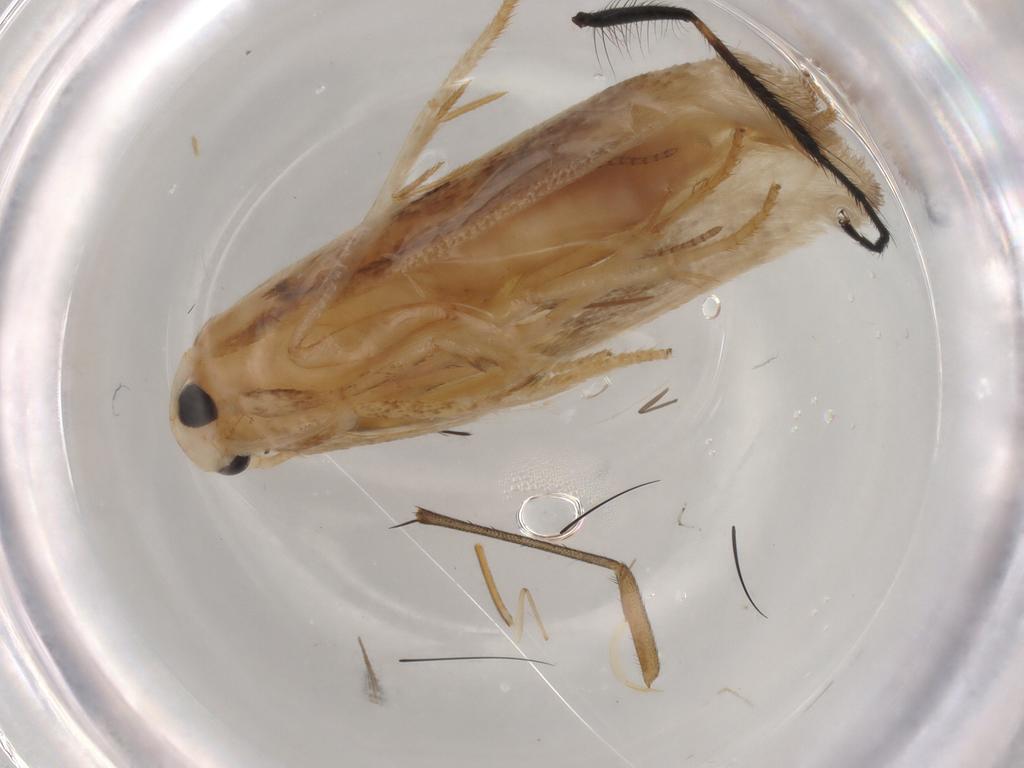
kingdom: Animalia
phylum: Arthropoda
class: Insecta
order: Lepidoptera
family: Geometridae
